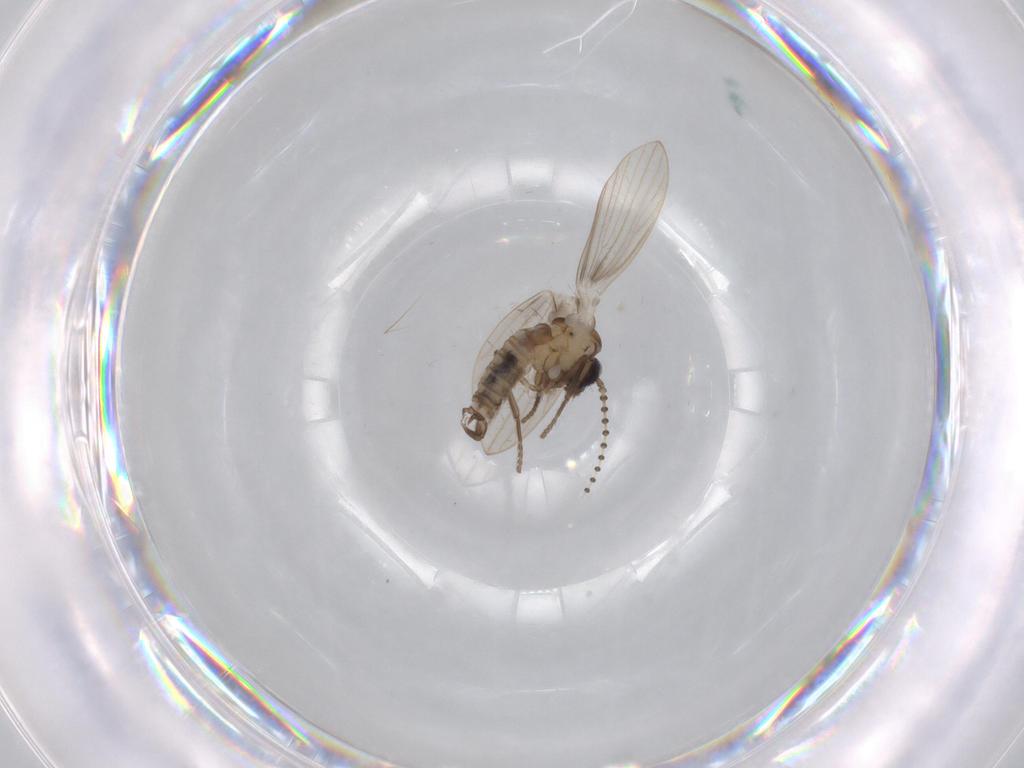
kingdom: Animalia
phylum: Arthropoda
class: Insecta
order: Diptera
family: Psychodidae
